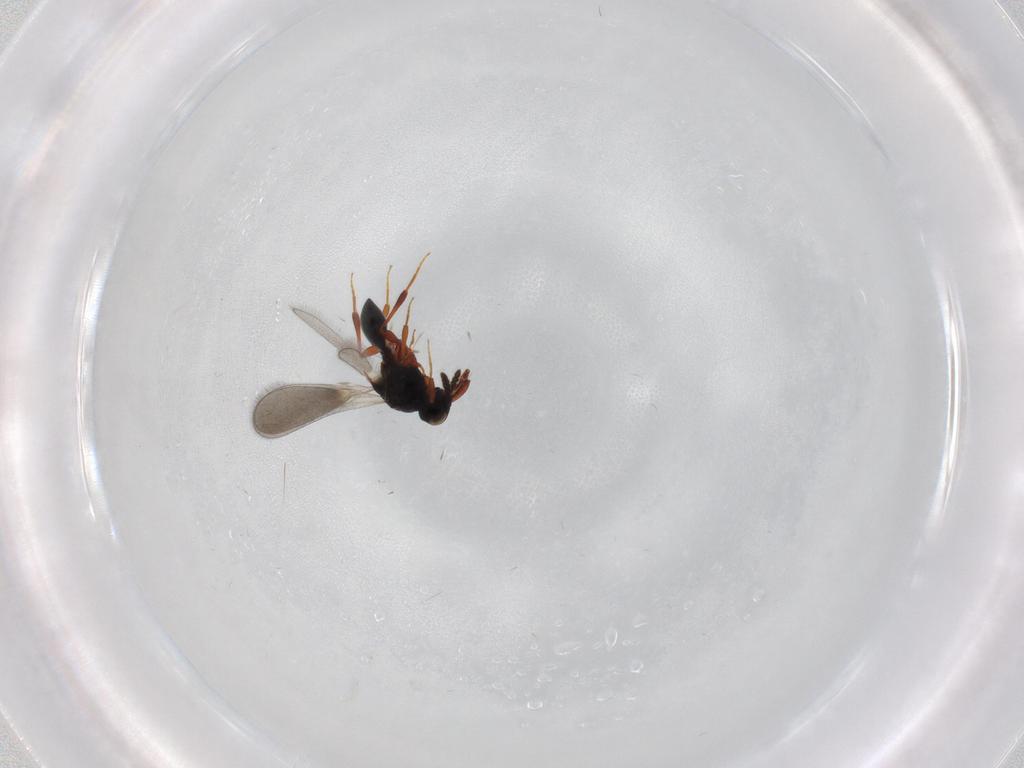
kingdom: Animalia
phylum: Arthropoda
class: Insecta
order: Hymenoptera
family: Platygastridae
